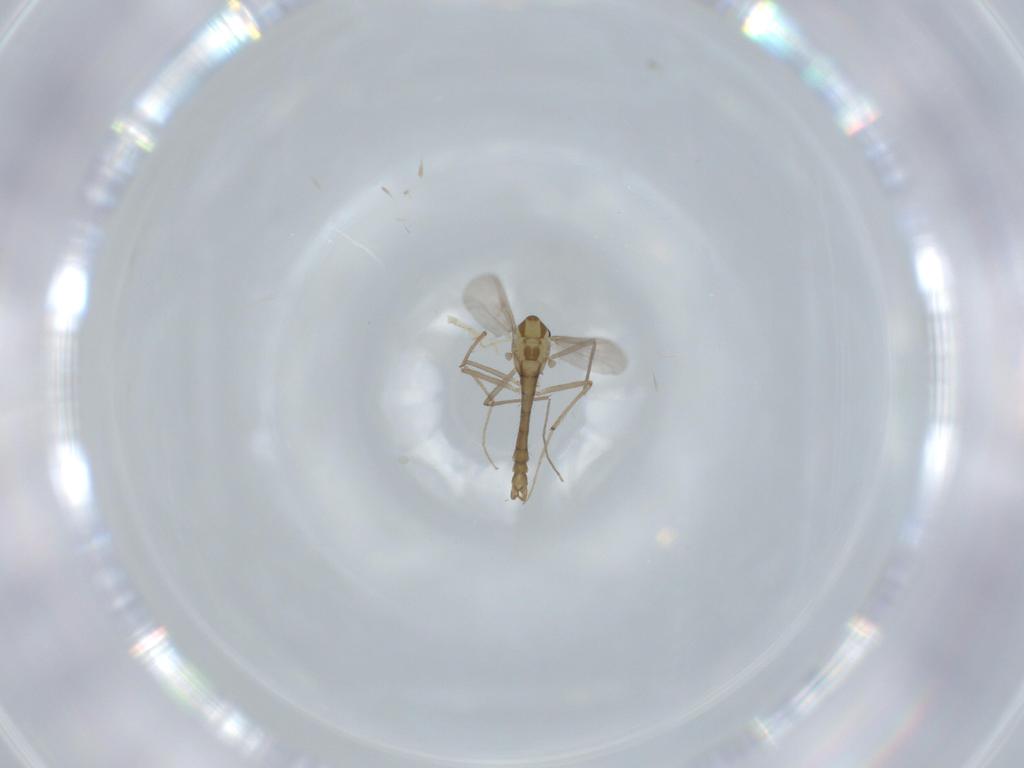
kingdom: Animalia
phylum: Arthropoda
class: Insecta
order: Diptera
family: Chironomidae
